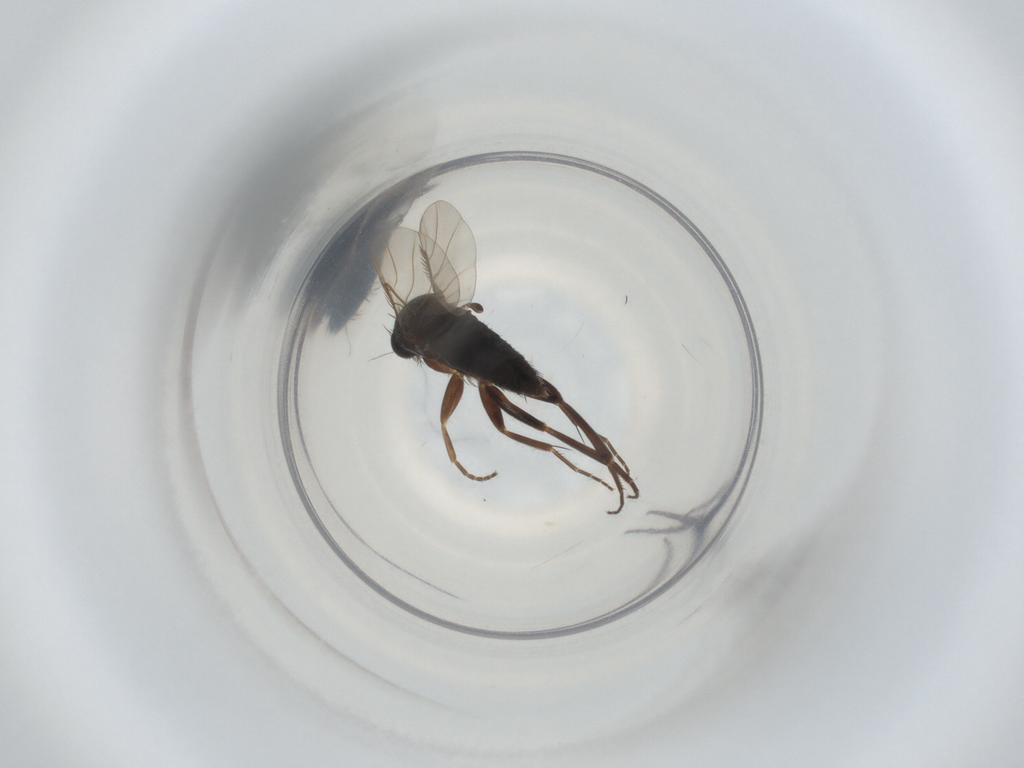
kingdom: Animalia
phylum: Arthropoda
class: Insecta
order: Diptera
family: Phoridae
